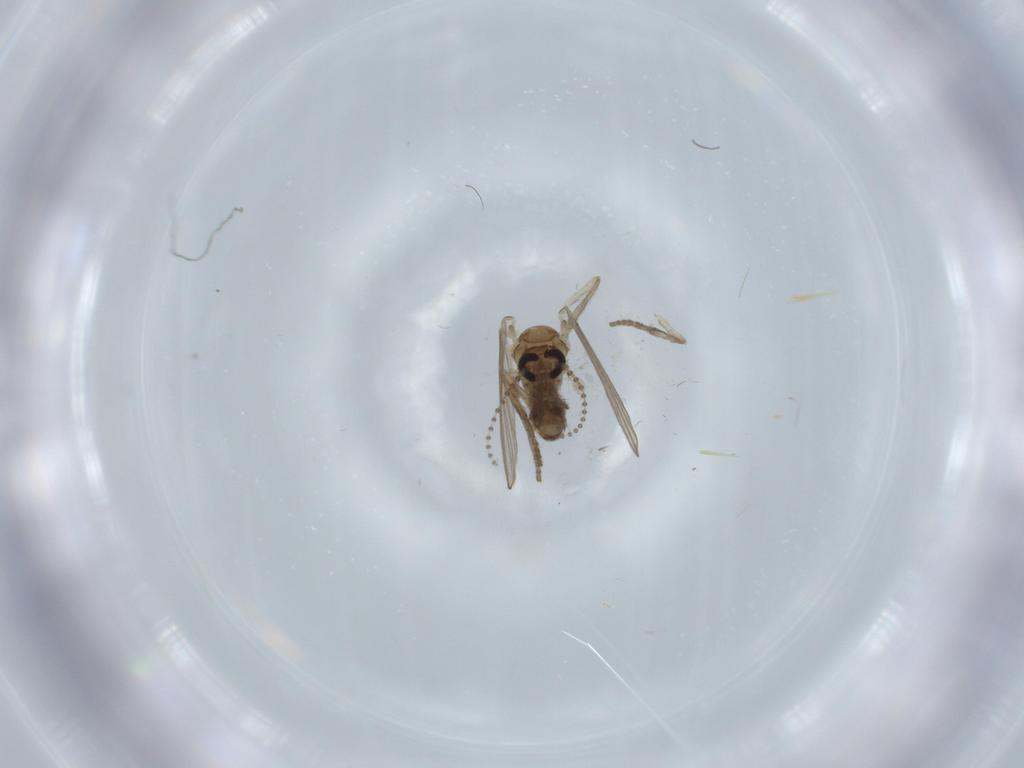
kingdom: Animalia
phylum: Arthropoda
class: Insecta
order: Diptera
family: Psychodidae
